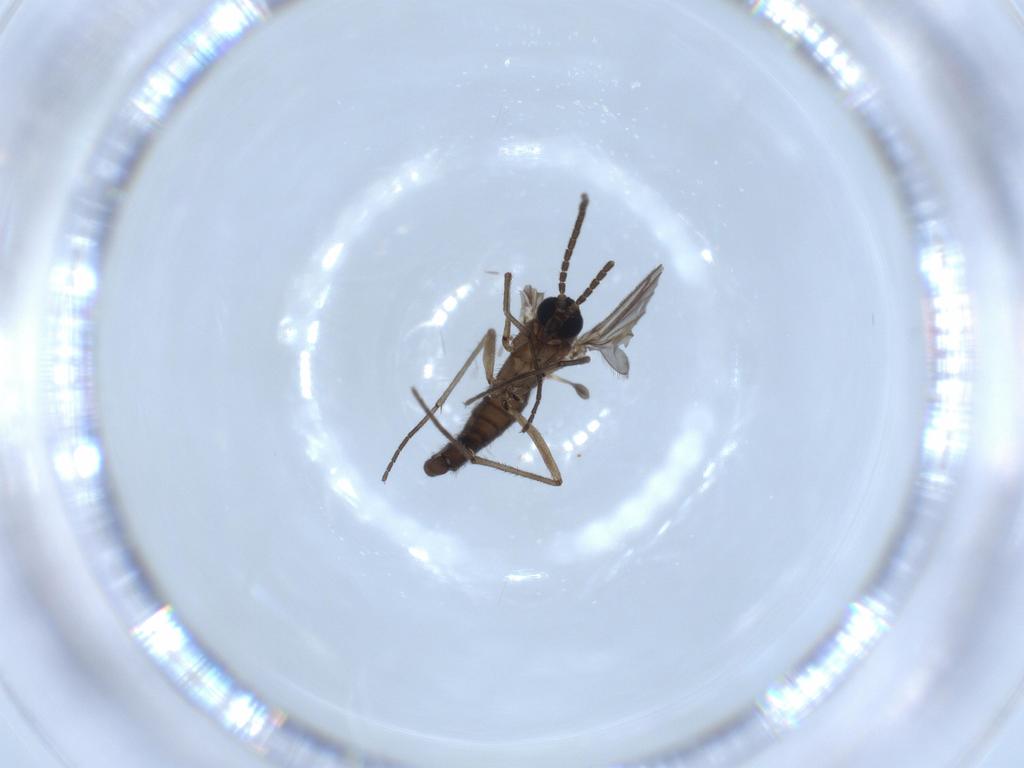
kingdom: Animalia
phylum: Arthropoda
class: Insecta
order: Diptera
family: Sciaridae
